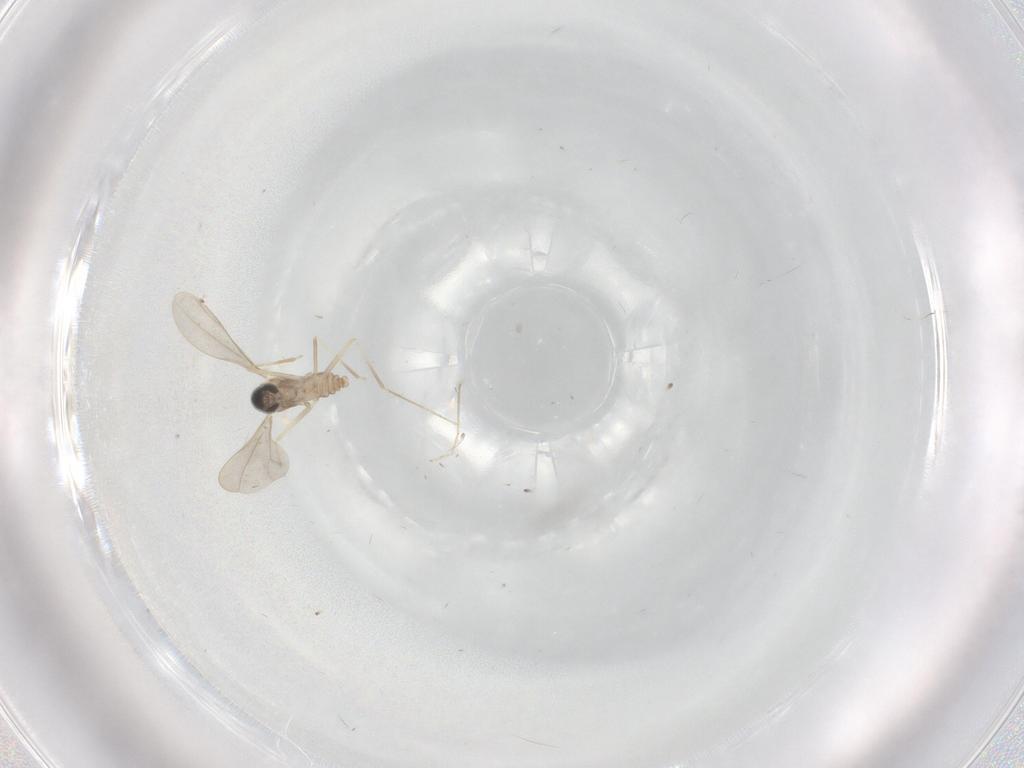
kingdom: Animalia
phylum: Arthropoda
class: Insecta
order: Diptera
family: Cecidomyiidae
